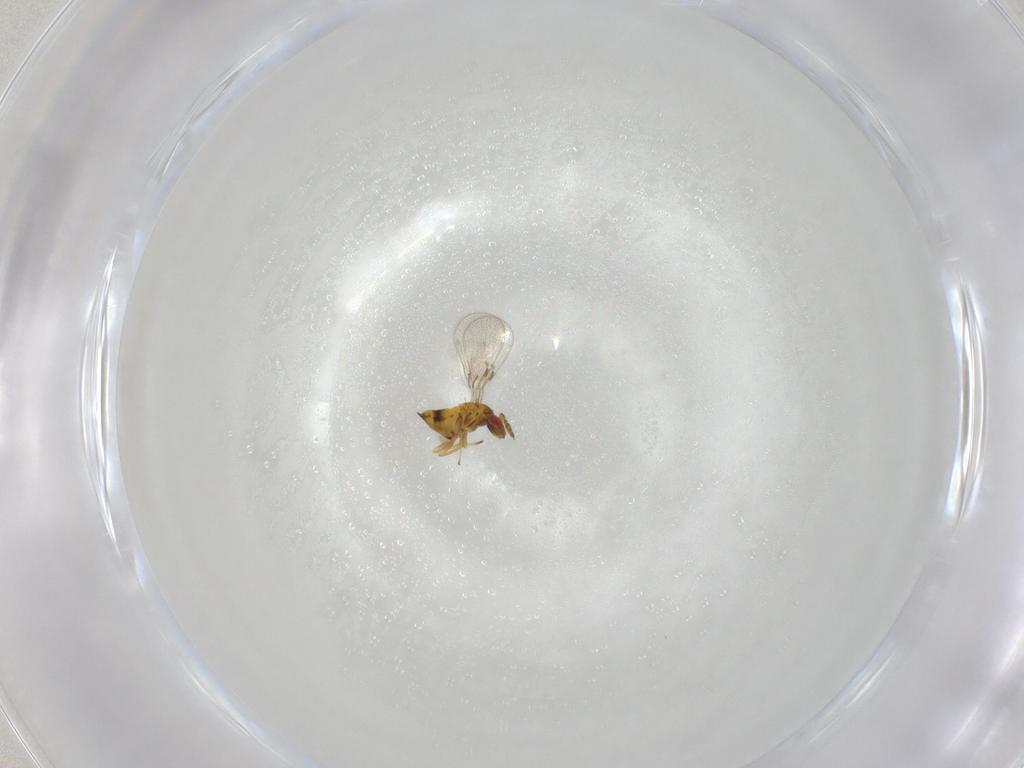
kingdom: Animalia
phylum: Arthropoda
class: Insecta
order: Hymenoptera
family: Trichogrammatidae
